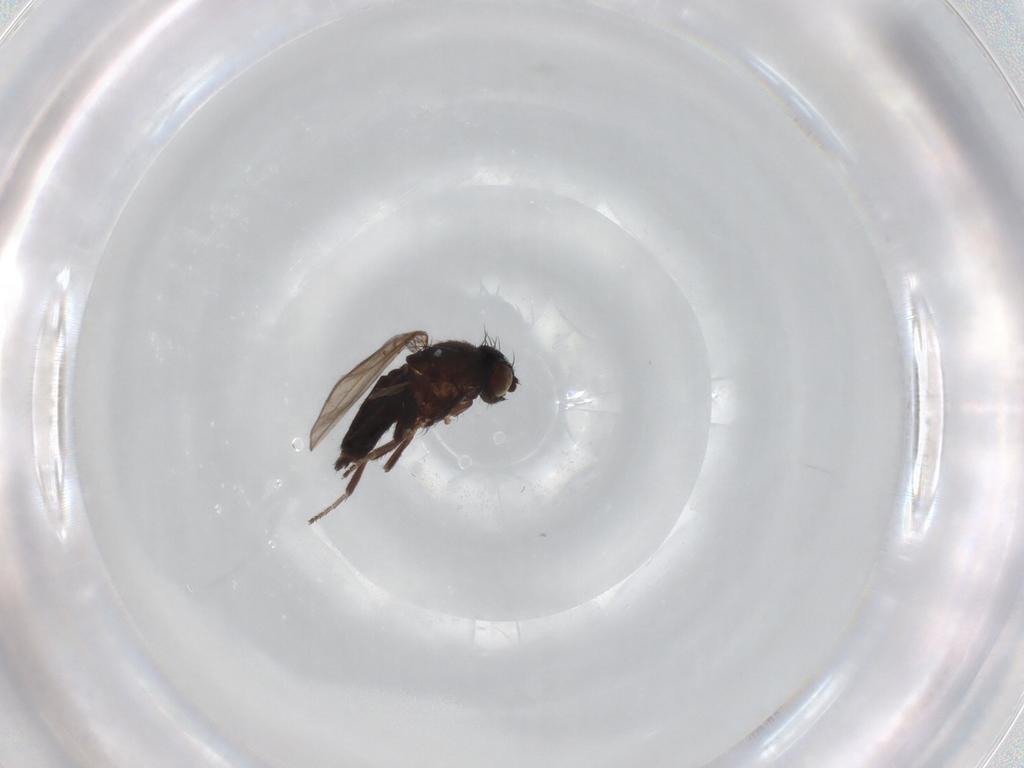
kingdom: Animalia
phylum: Arthropoda
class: Insecta
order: Diptera
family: Milichiidae
